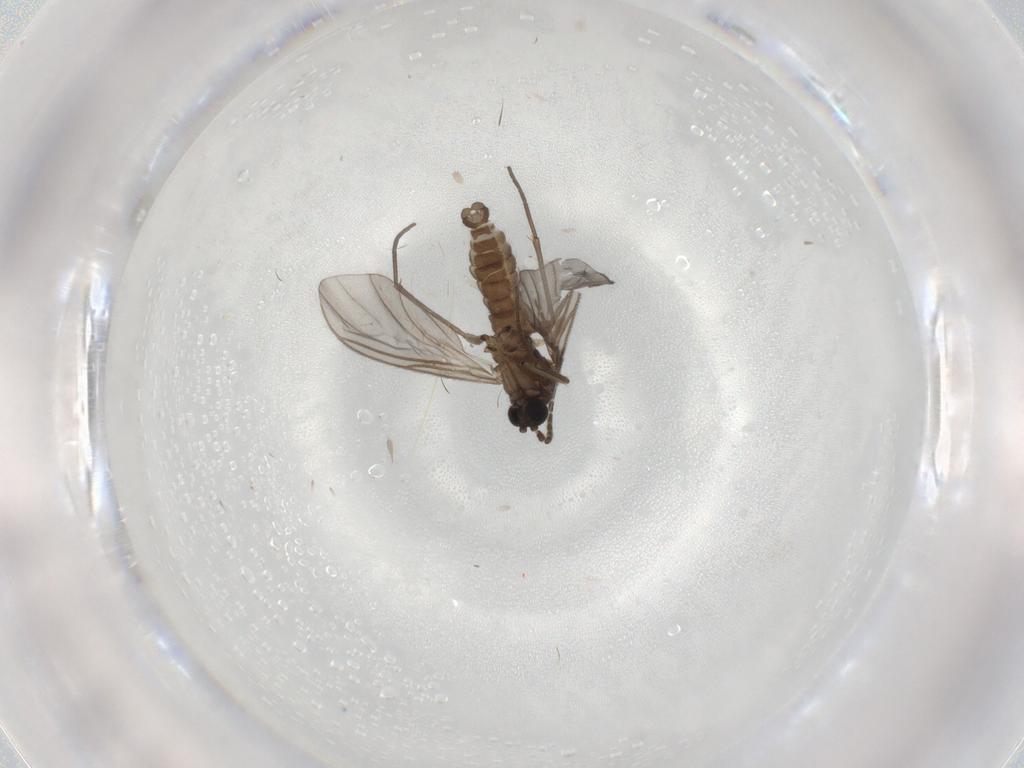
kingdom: Animalia
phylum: Arthropoda
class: Insecta
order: Diptera
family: Sciaridae
